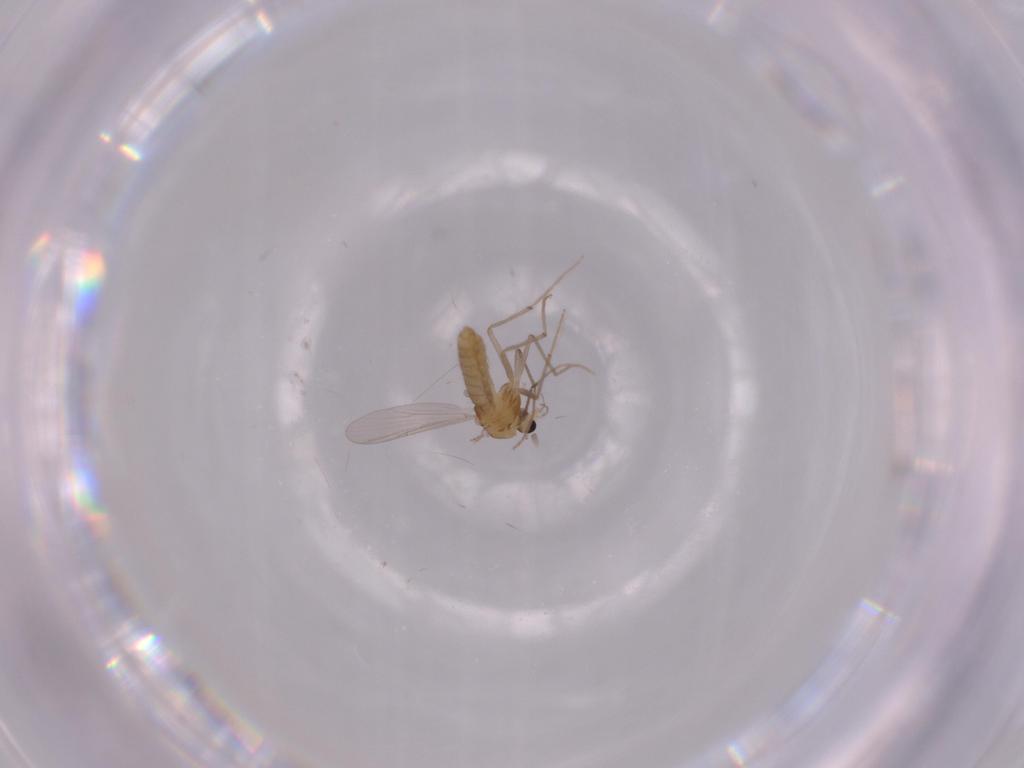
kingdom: Animalia
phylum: Arthropoda
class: Insecta
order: Diptera
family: Chironomidae
